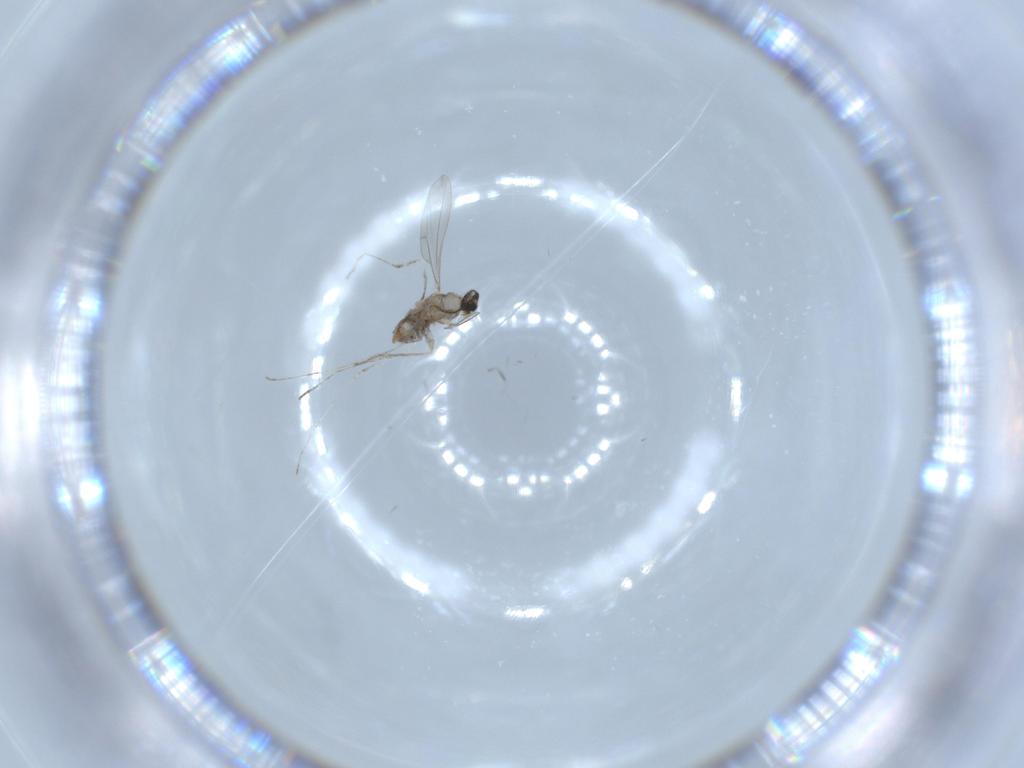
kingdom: Animalia
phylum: Arthropoda
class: Insecta
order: Diptera
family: Cecidomyiidae
